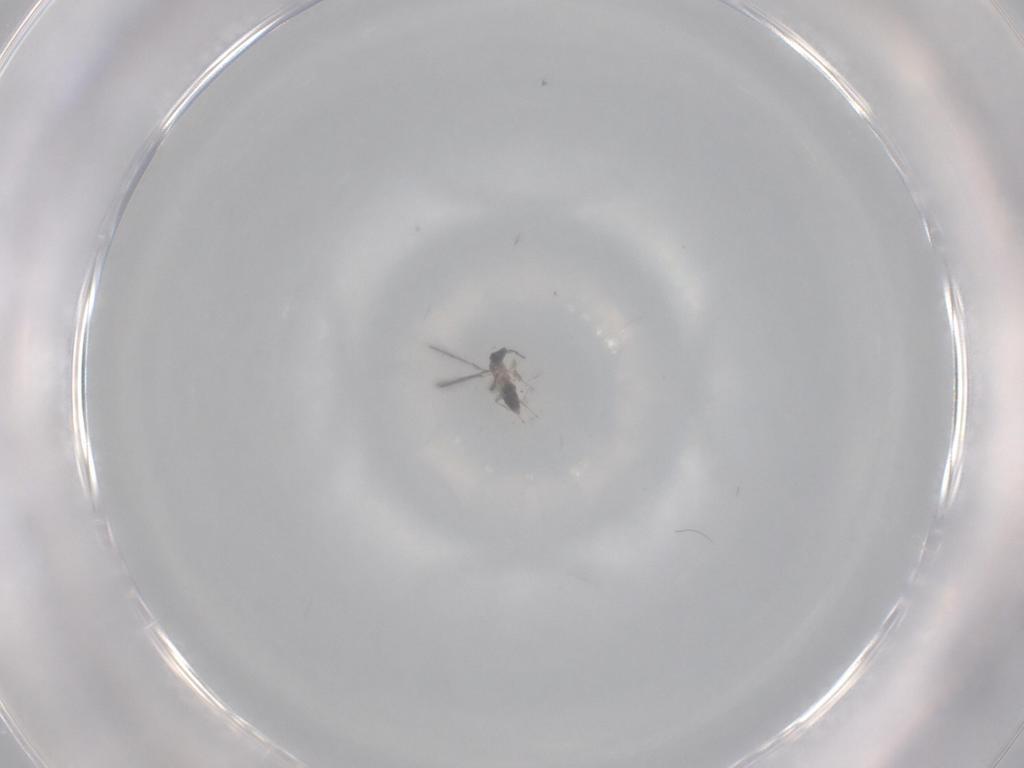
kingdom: Animalia
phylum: Arthropoda
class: Insecta
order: Hymenoptera
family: Mymaridae
